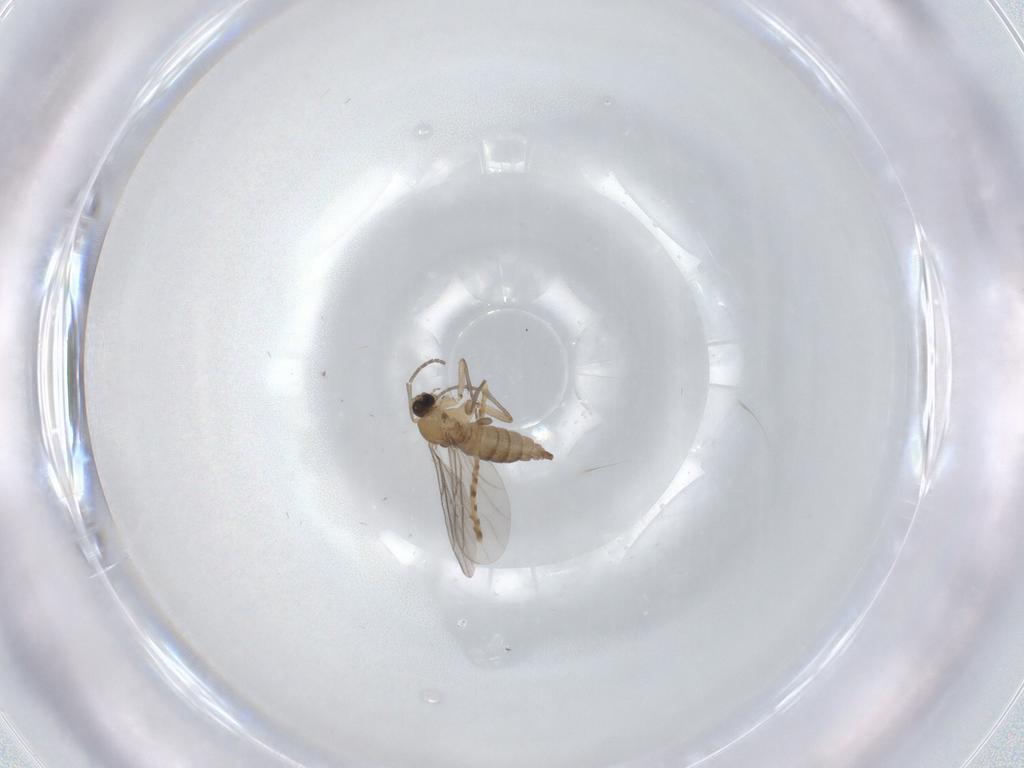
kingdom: Animalia
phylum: Arthropoda
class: Insecta
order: Diptera
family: Sciaridae
